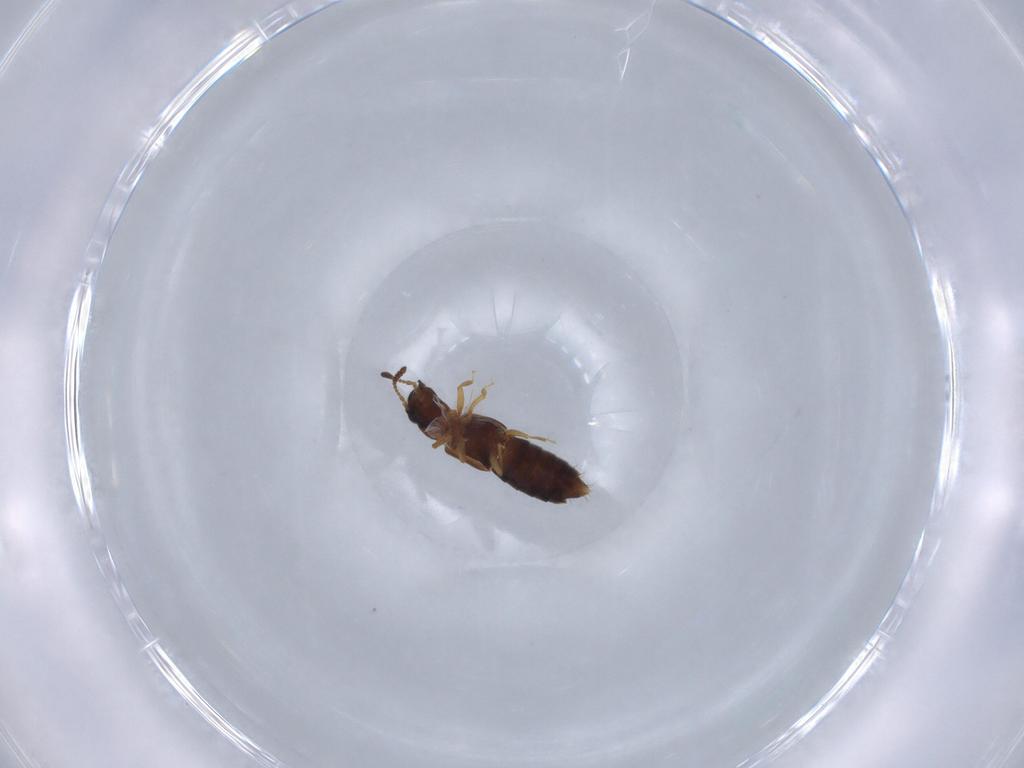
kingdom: Animalia
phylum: Arthropoda
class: Insecta
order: Coleoptera
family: Staphylinidae
